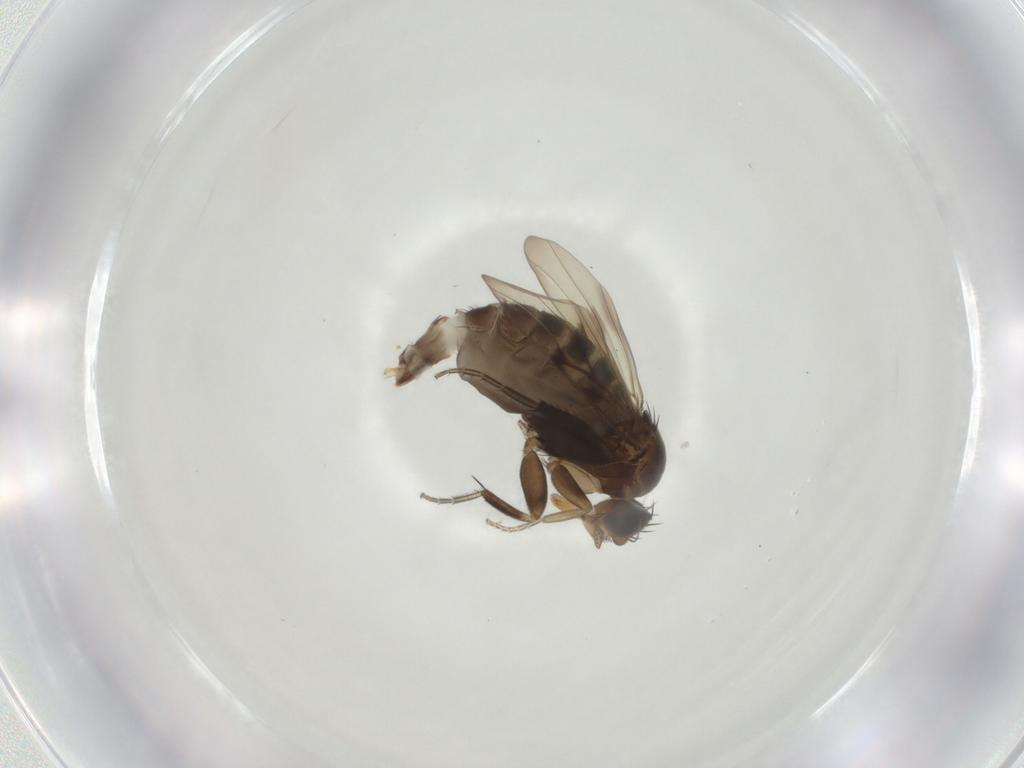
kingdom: Animalia
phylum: Arthropoda
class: Insecta
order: Diptera
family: Phoridae
